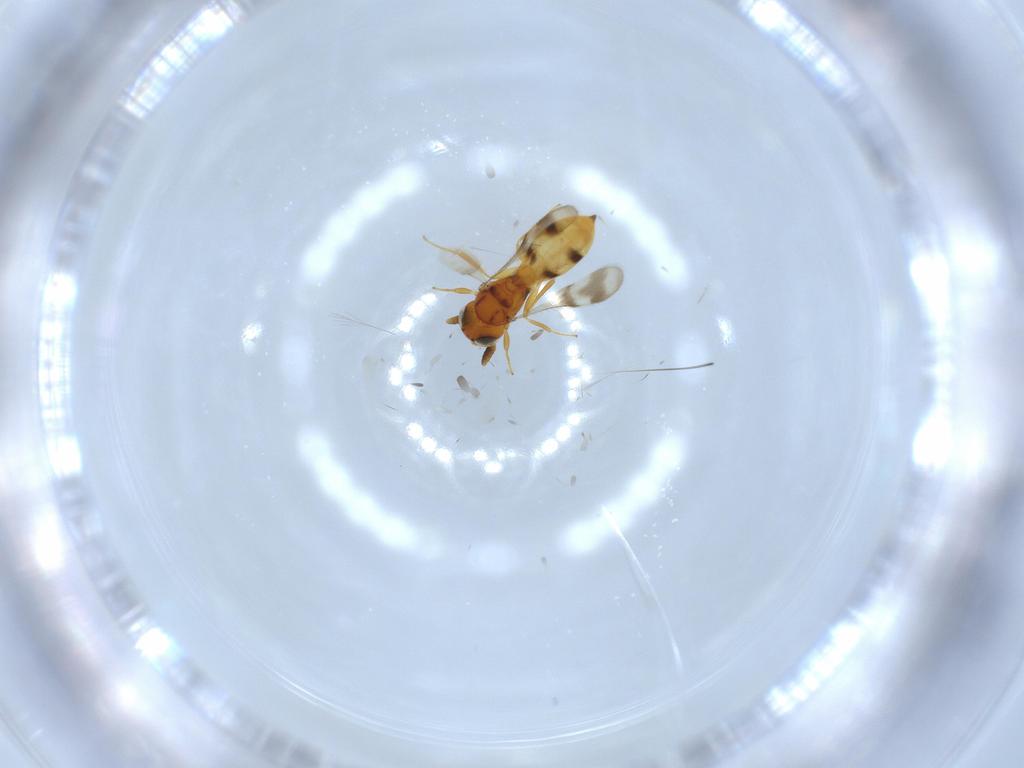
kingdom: Animalia
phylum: Arthropoda
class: Insecta
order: Hymenoptera
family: Scelionidae
